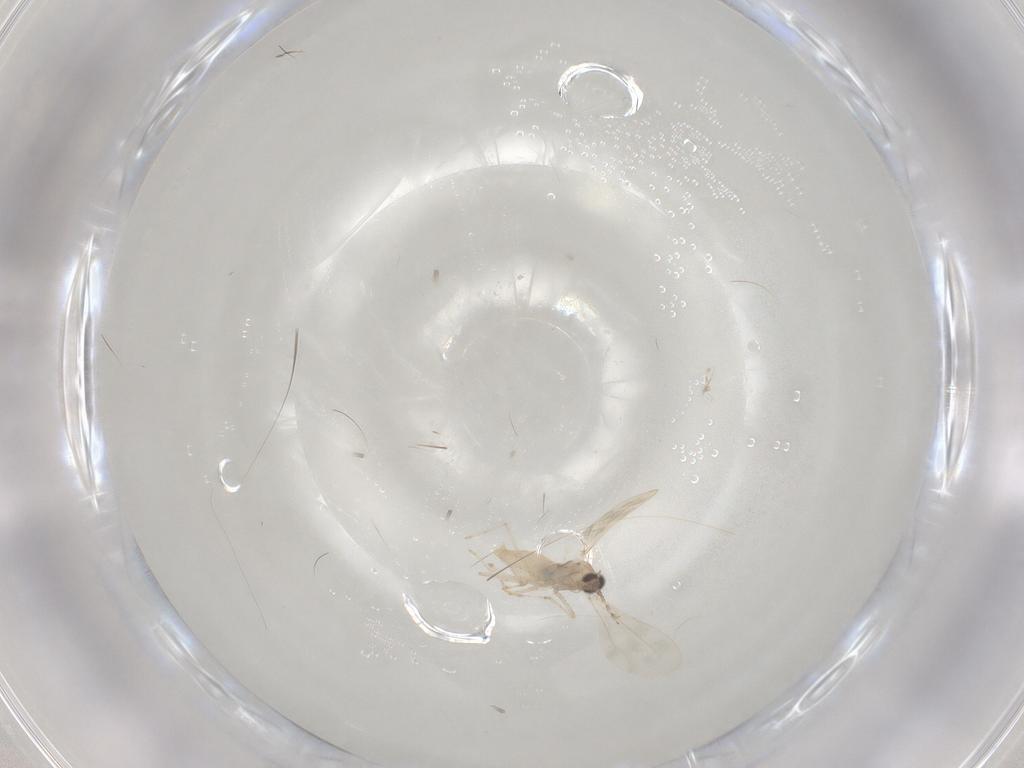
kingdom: Animalia
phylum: Arthropoda
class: Insecta
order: Diptera
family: Cecidomyiidae
